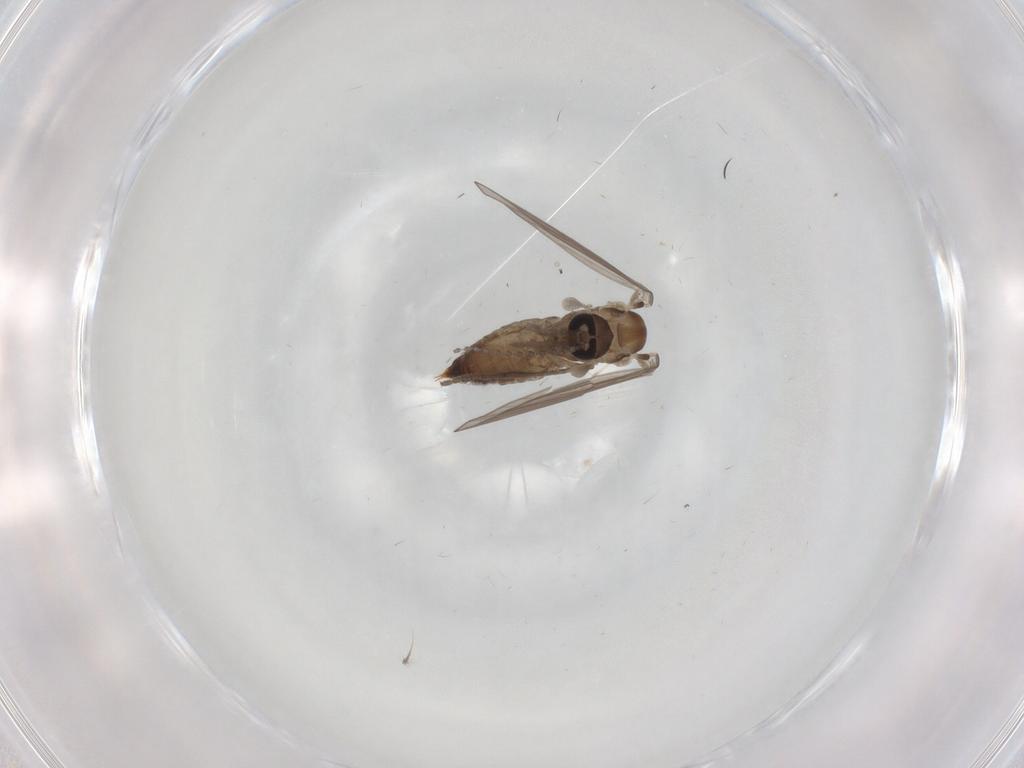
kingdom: Animalia
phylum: Arthropoda
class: Insecta
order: Diptera
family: Psychodidae
